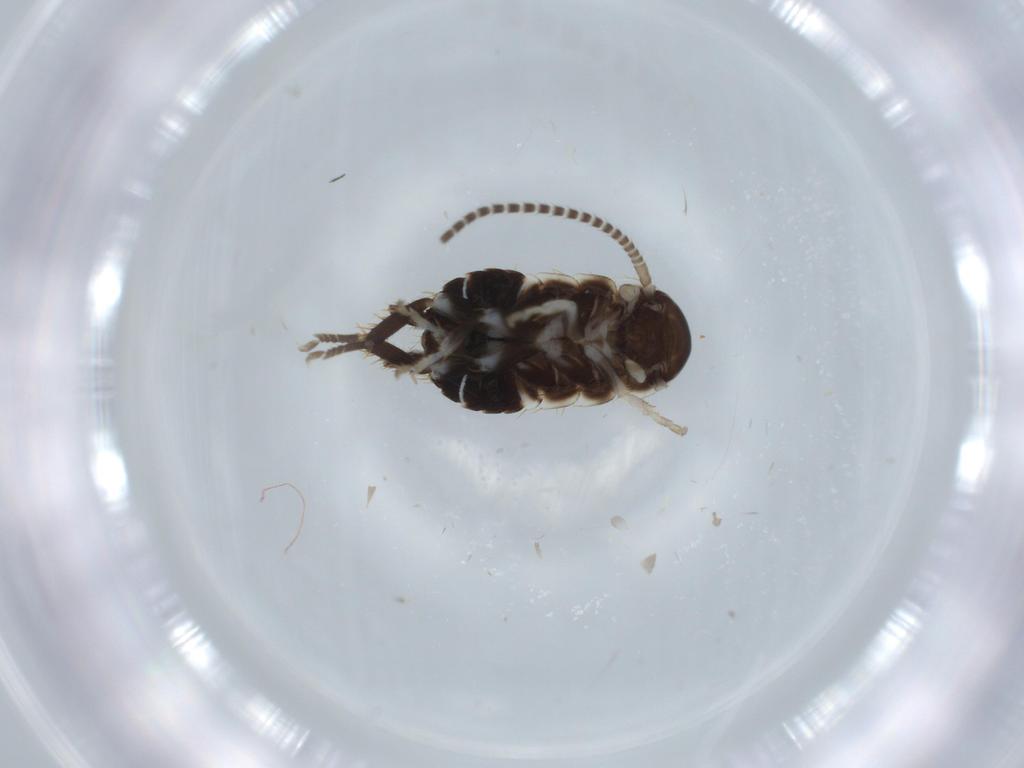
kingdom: Animalia
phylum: Arthropoda
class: Insecta
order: Blattodea
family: Ectobiidae
